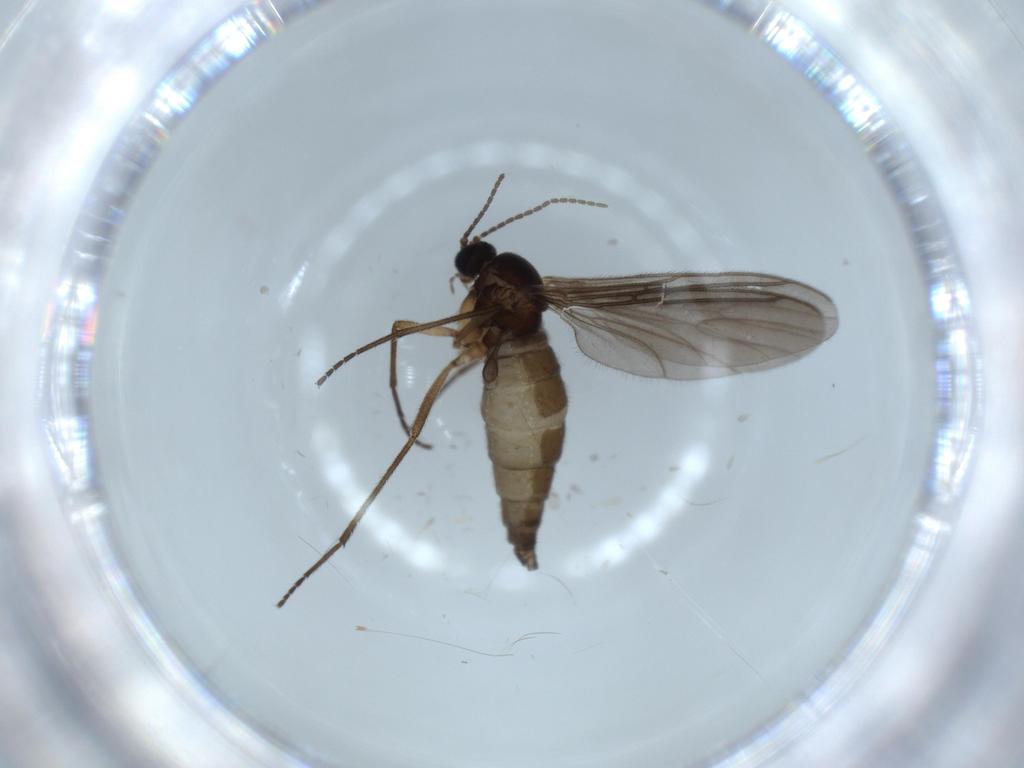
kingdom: Animalia
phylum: Arthropoda
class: Insecta
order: Diptera
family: Sciaridae
